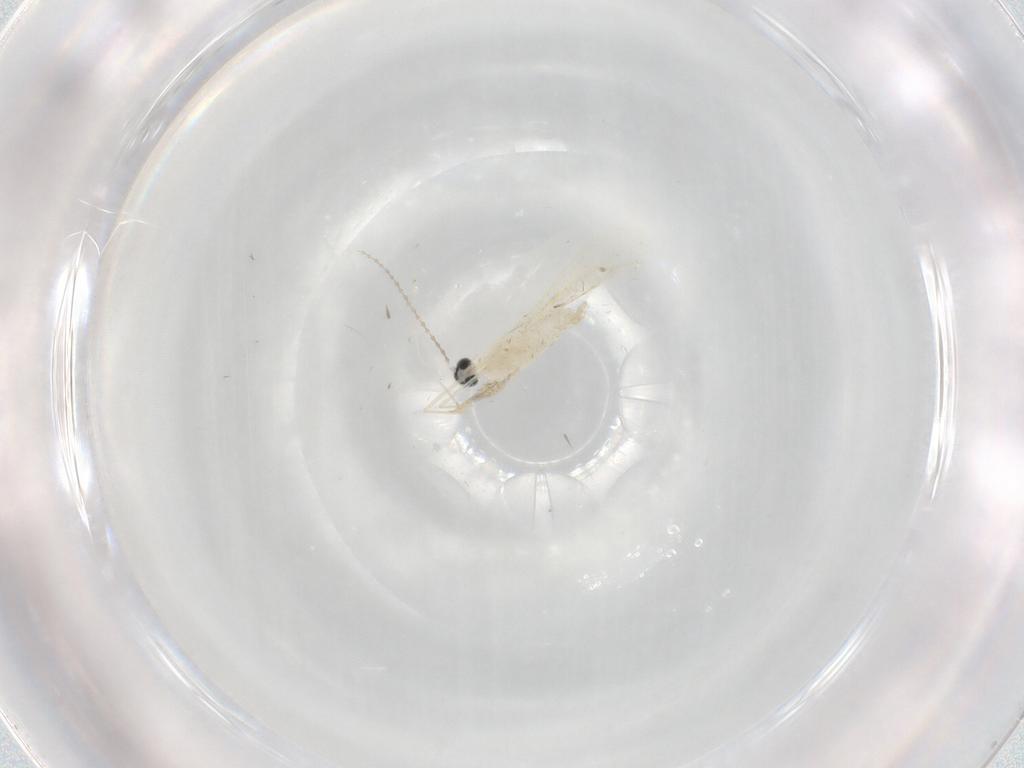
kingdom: Animalia
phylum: Arthropoda
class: Insecta
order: Diptera
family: Cecidomyiidae
